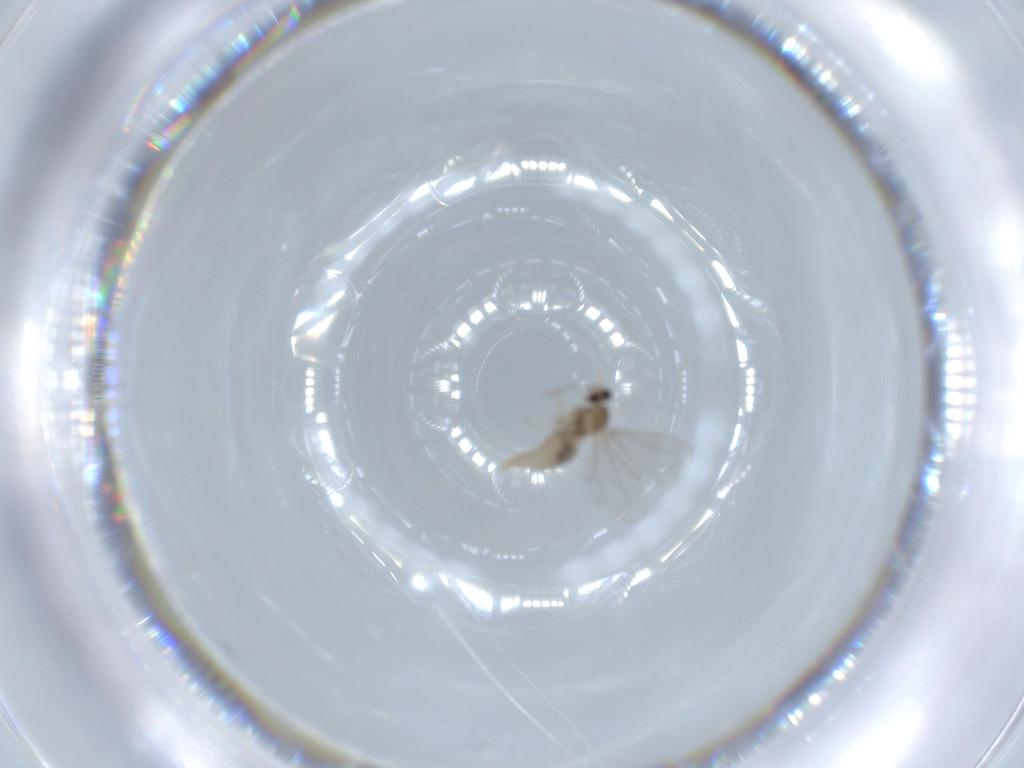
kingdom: Animalia
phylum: Arthropoda
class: Insecta
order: Diptera
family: Cecidomyiidae
